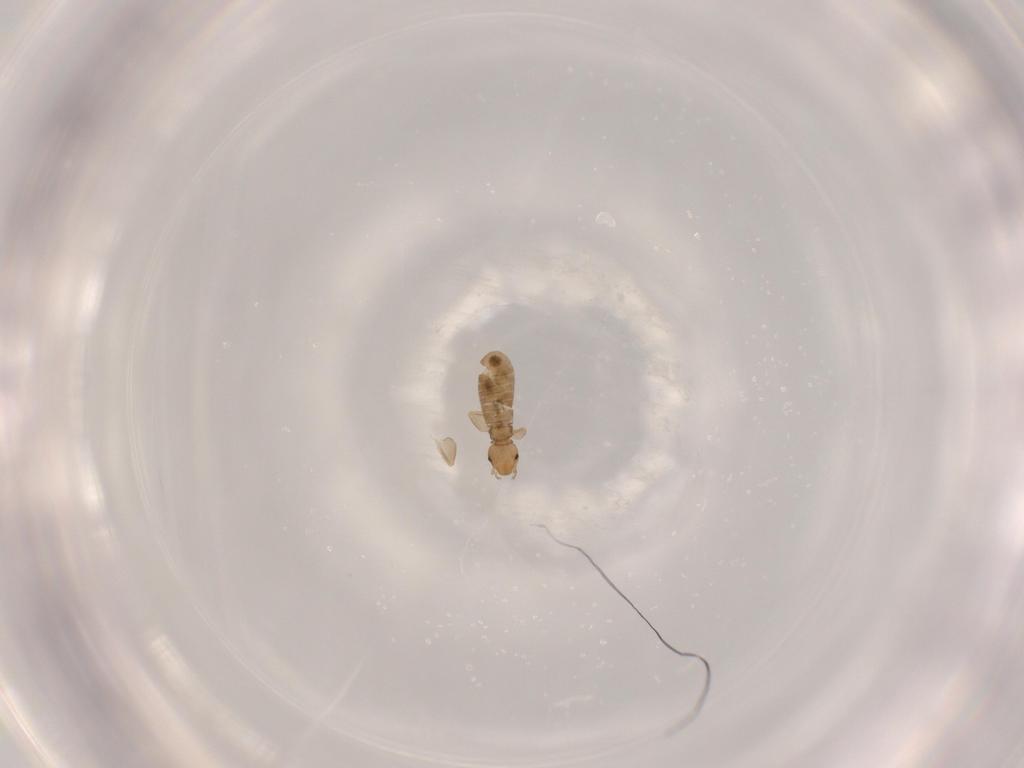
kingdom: Animalia
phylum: Arthropoda
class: Insecta
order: Psocodea
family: Liposcelididae
